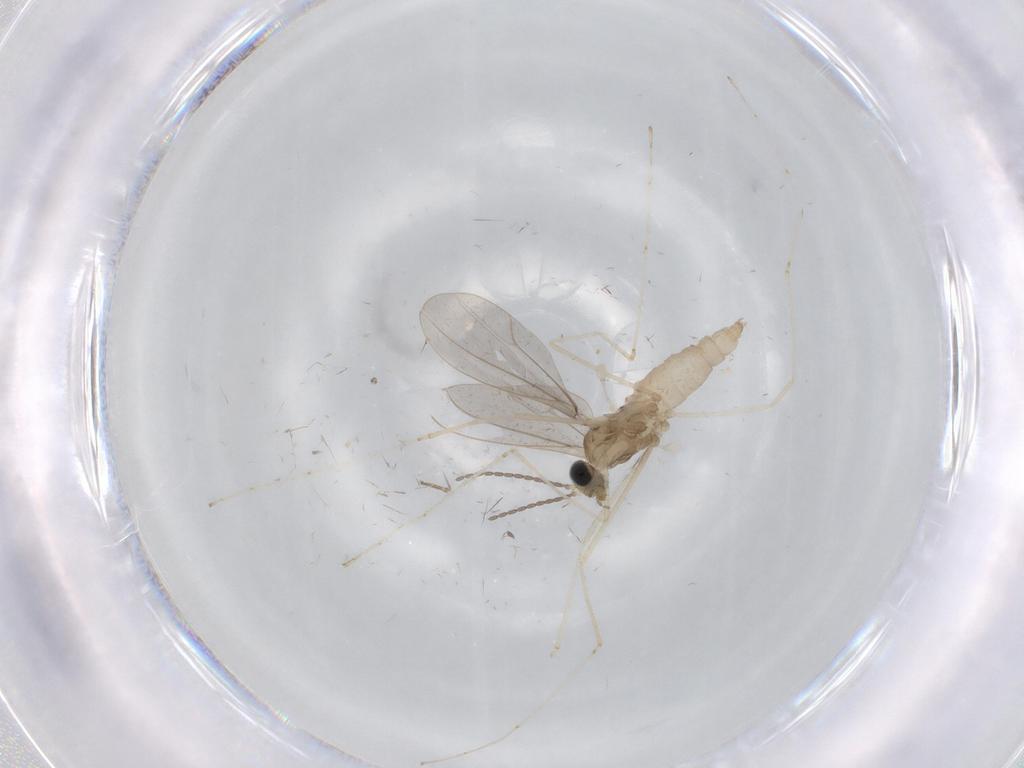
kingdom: Animalia
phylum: Arthropoda
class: Insecta
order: Diptera
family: Cecidomyiidae
